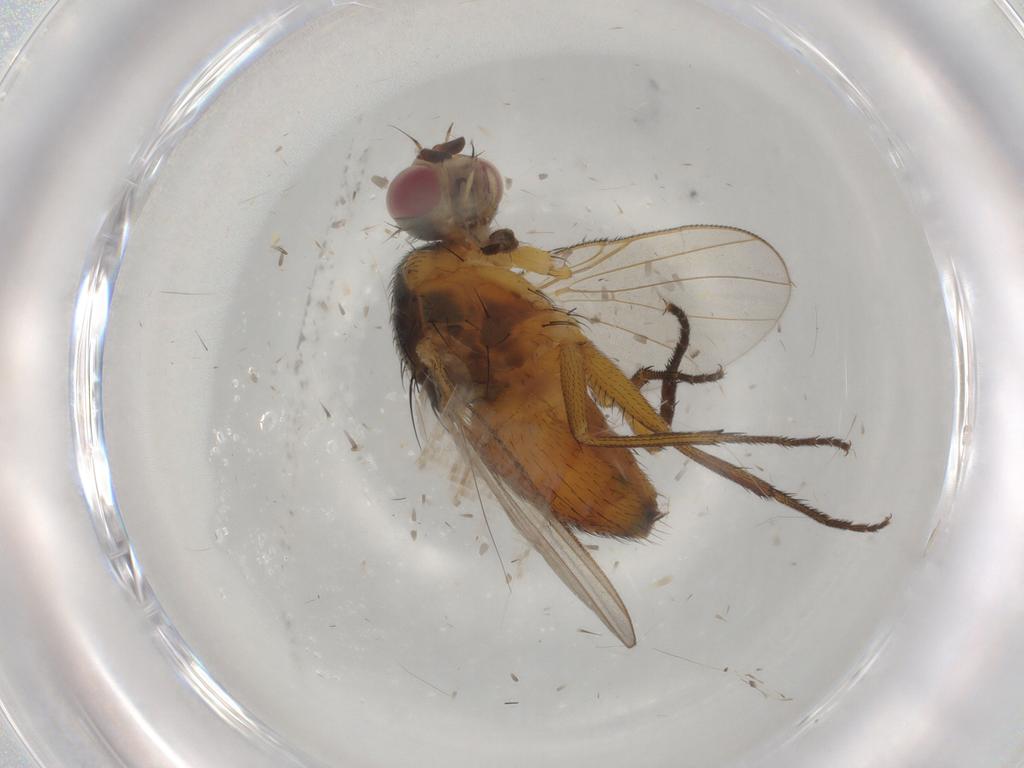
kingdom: Animalia
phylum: Arthropoda
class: Insecta
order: Diptera
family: Muscidae
